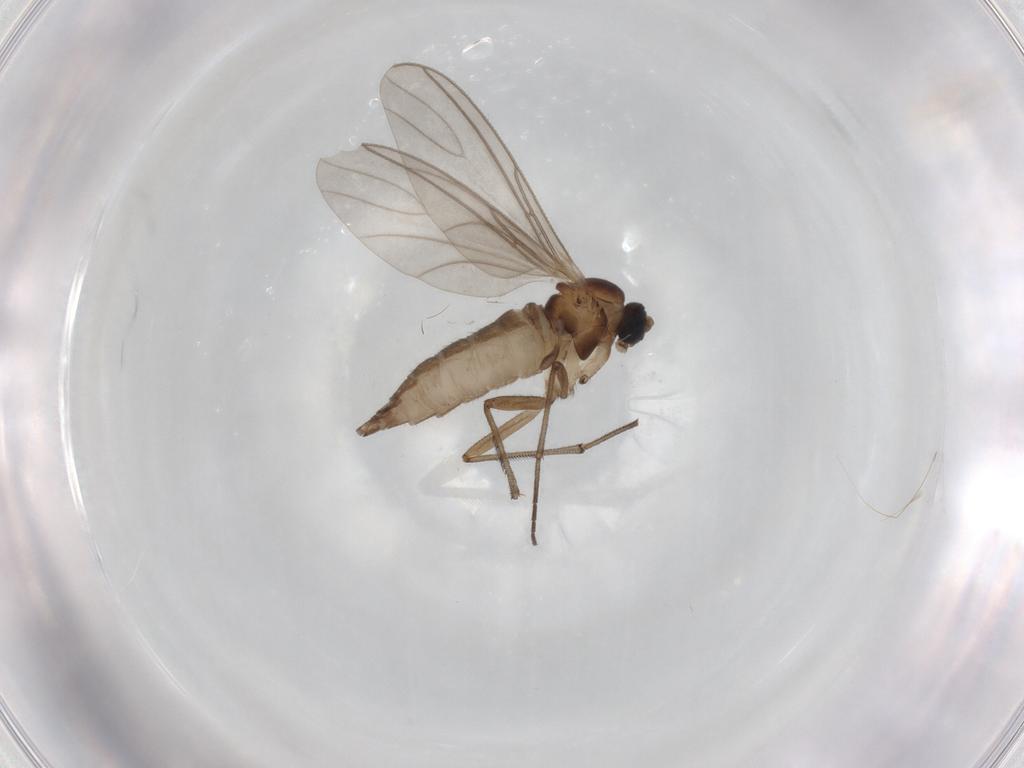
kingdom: Animalia
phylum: Arthropoda
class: Insecta
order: Diptera
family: Sciaridae
